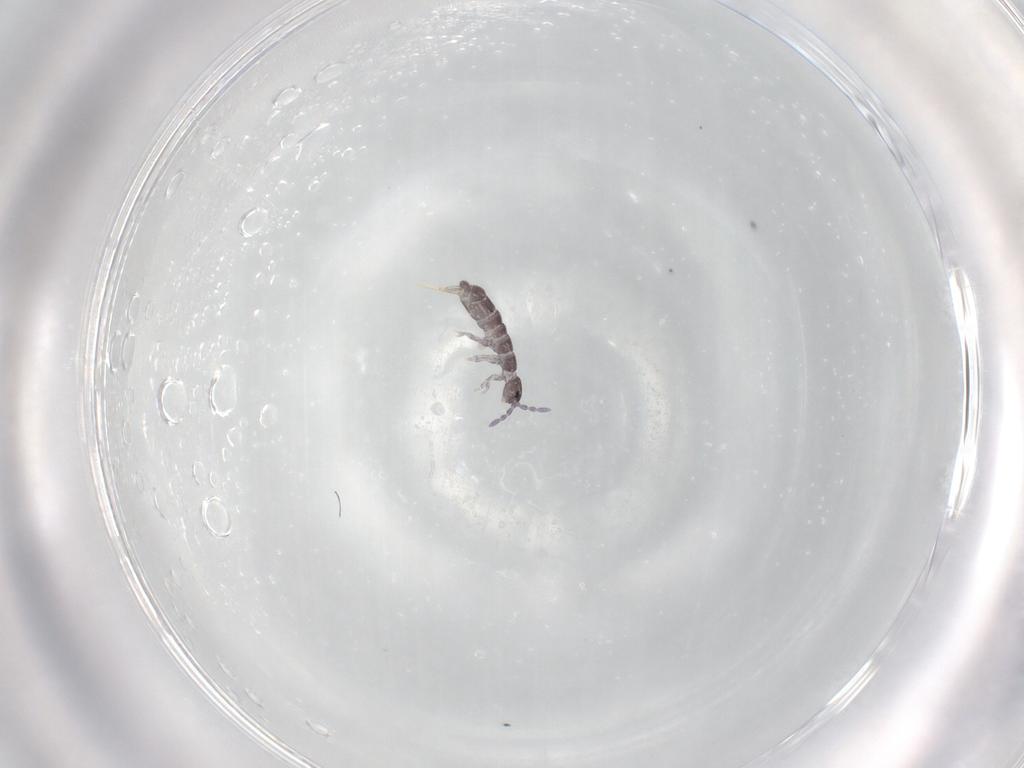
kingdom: Animalia
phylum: Arthropoda
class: Collembola
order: Entomobryomorpha
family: Isotomidae
